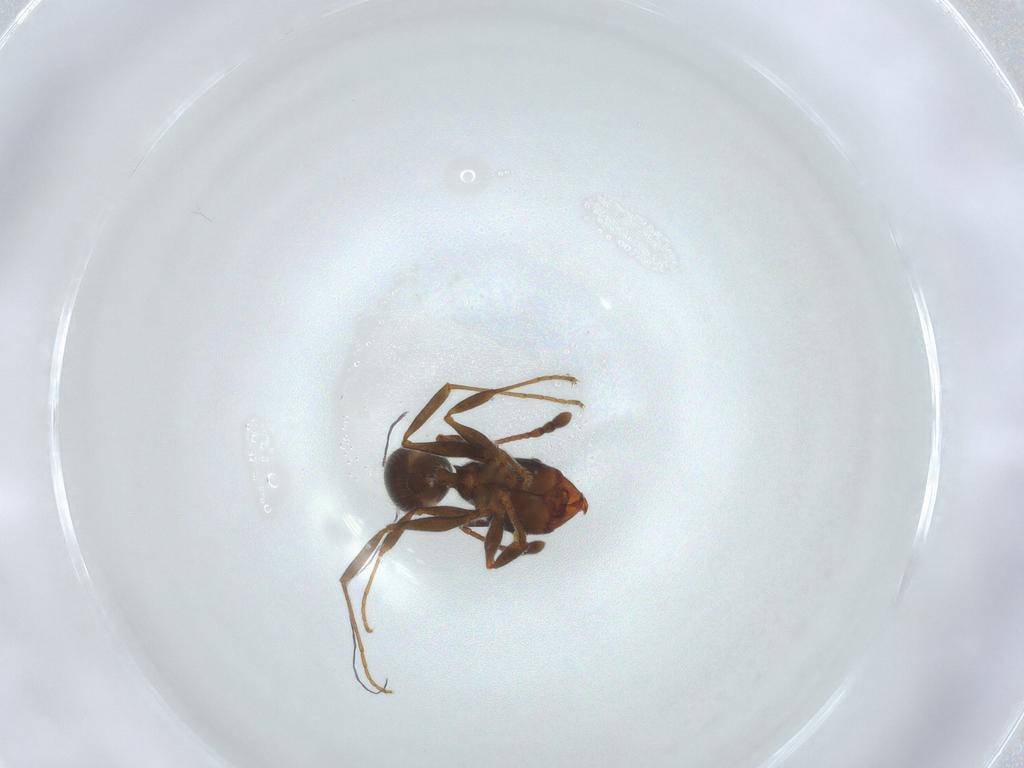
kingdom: Animalia
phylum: Arthropoda
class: Insecta
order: Hymenoptera
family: Formicidae
